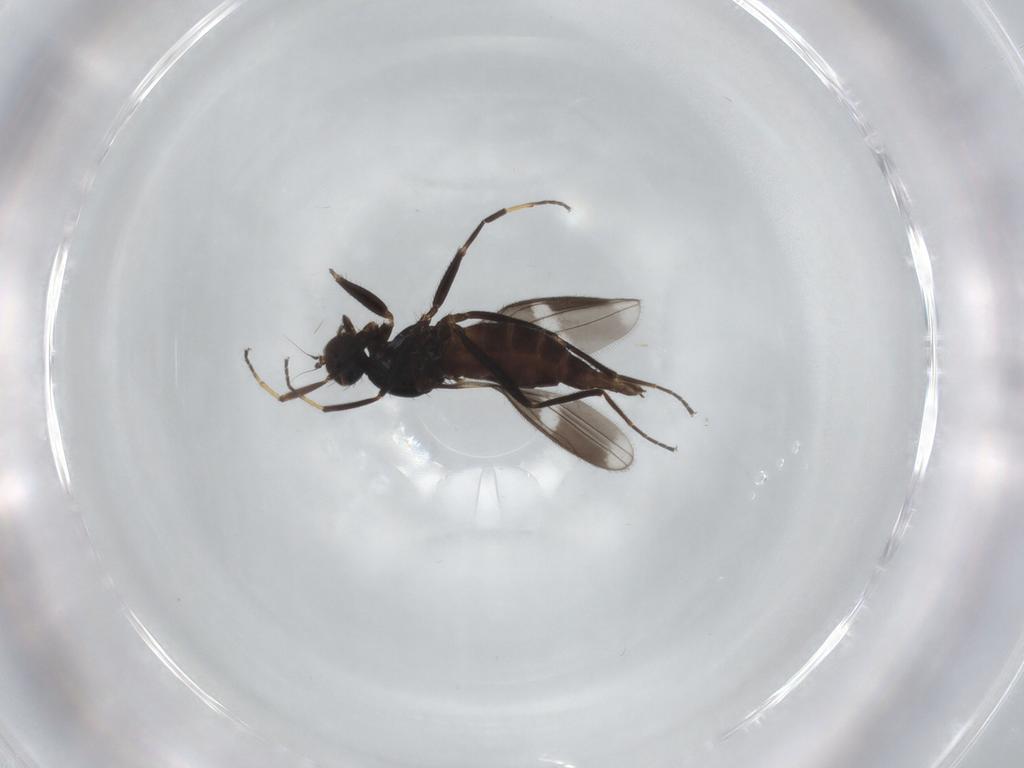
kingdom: Animalia
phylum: Arthropoda
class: Insecta
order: Diptera
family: Hybotidae
